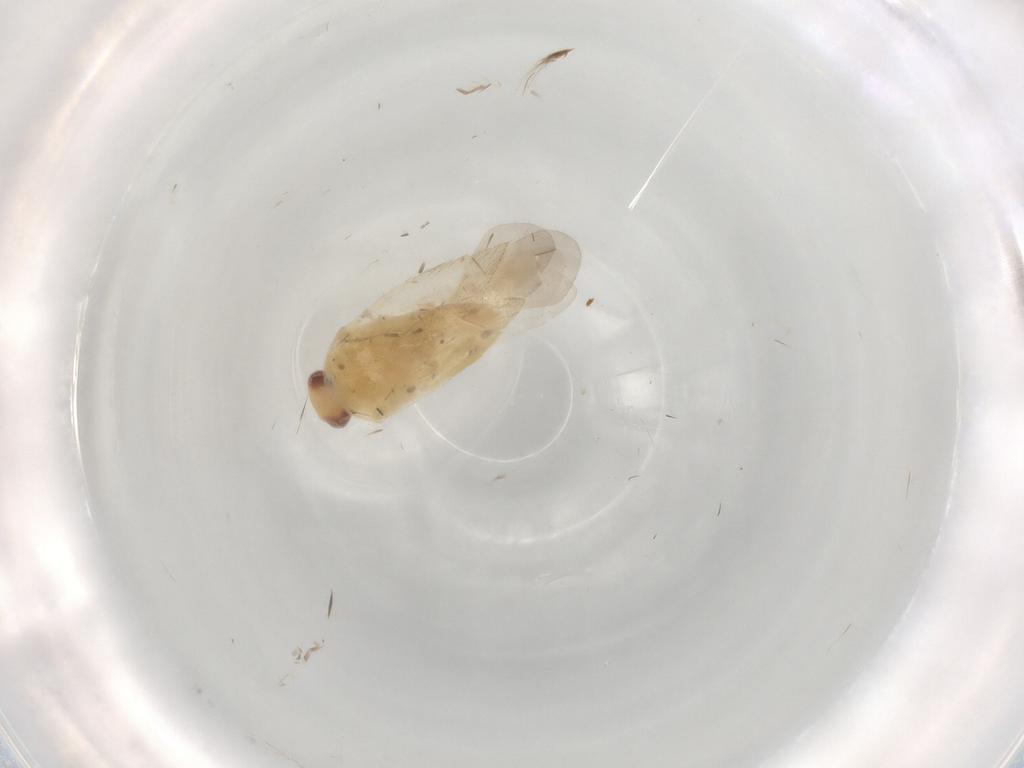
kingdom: Animalia
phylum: Arthropoda
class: Insecta
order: Hemiptera
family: Miridae
